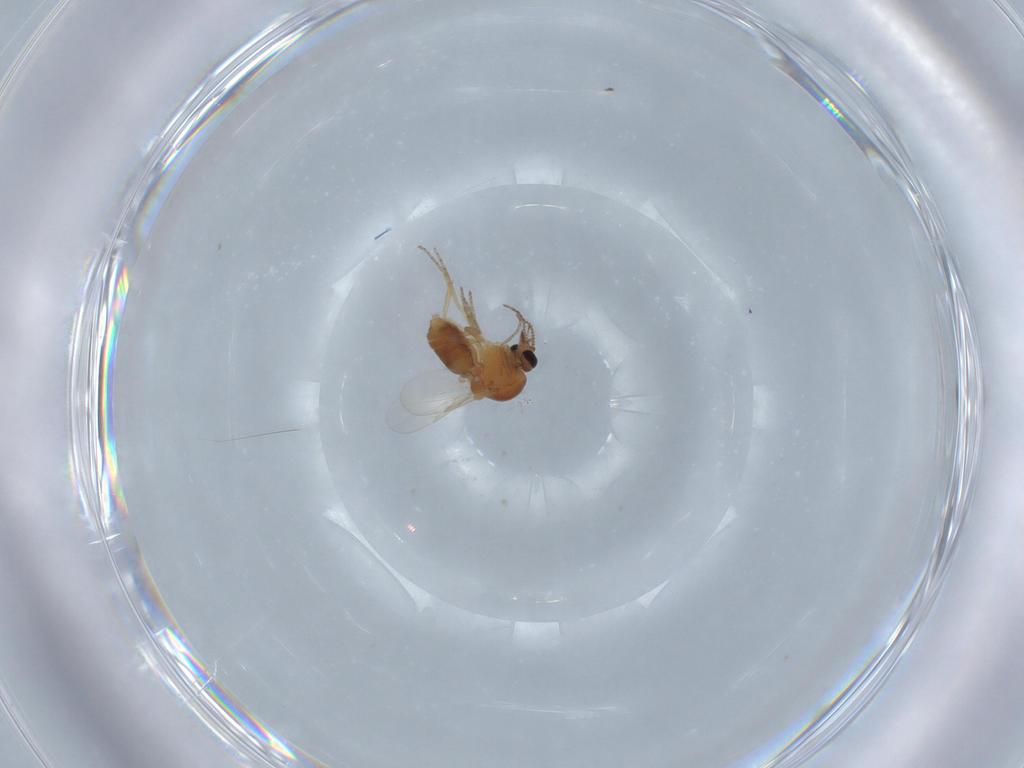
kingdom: Animalia
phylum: Arthropoda
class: Insecta
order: Diptera
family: Ceratopogonidae
